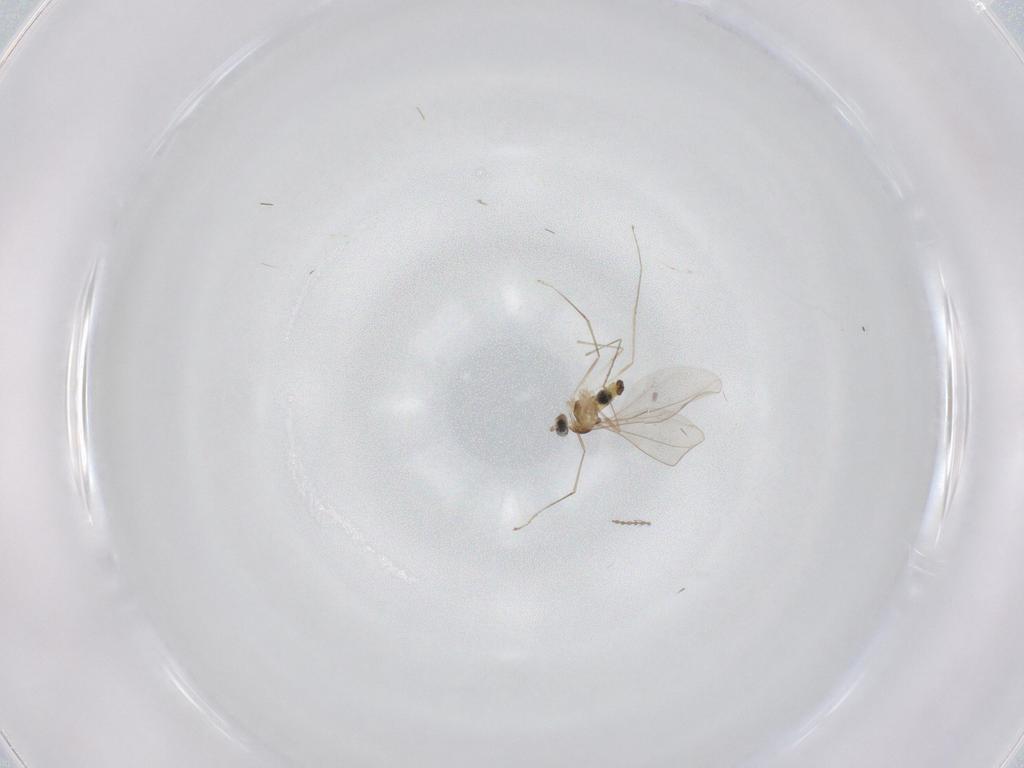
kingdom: Animalia
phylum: Arthropoda
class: Insecta
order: Diptera
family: Cecidomyiidae
